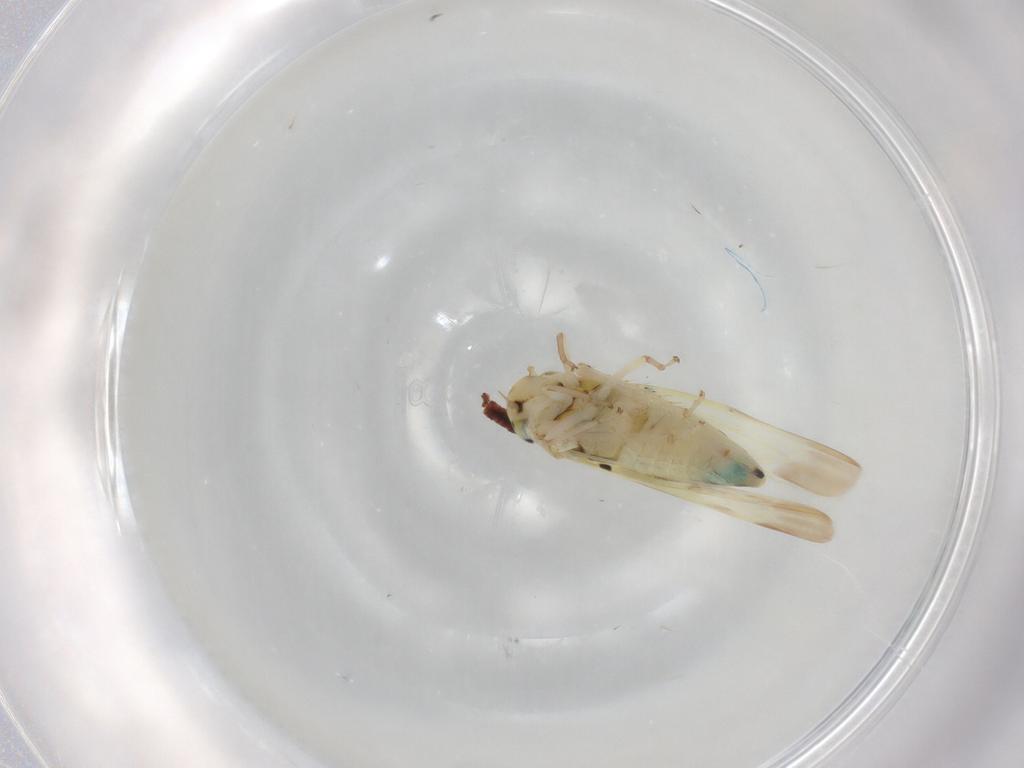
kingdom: Animalia
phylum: Arthropoda
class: Insecta
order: Hemiptera
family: Cicadellidae
